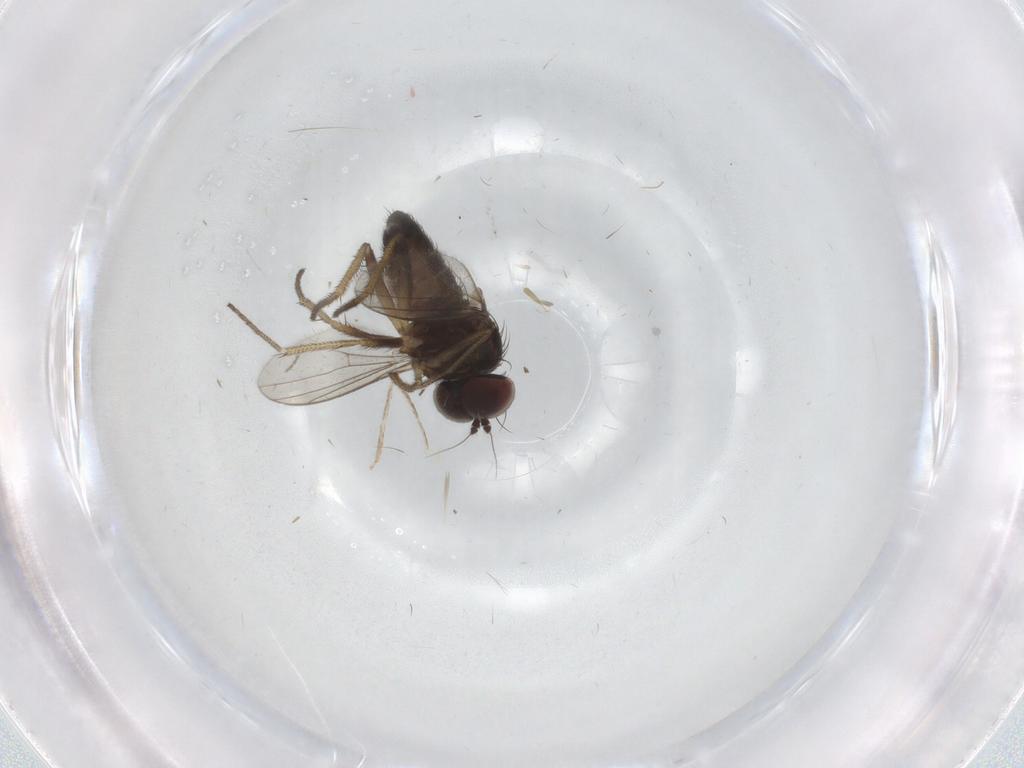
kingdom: Animalia
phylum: Arthropoda
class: Insecta
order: Diptera
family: Dolichopodidae
